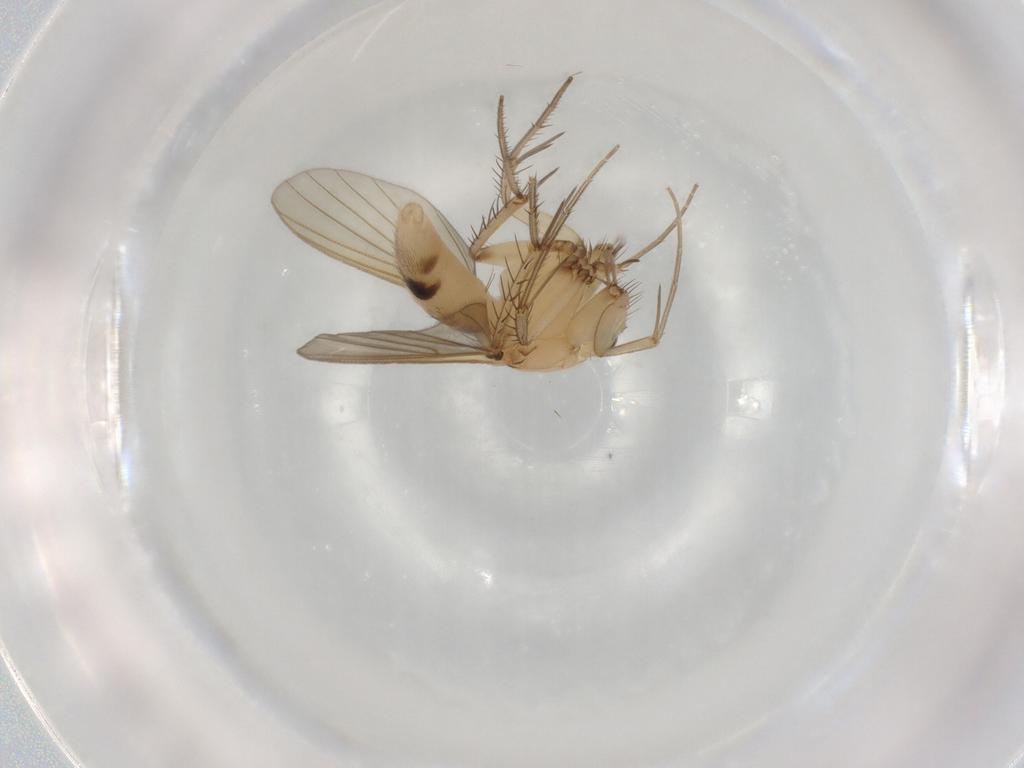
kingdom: Animalia
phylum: Arthropoda
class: Insecta
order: Diptera
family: Mycetophilidae
